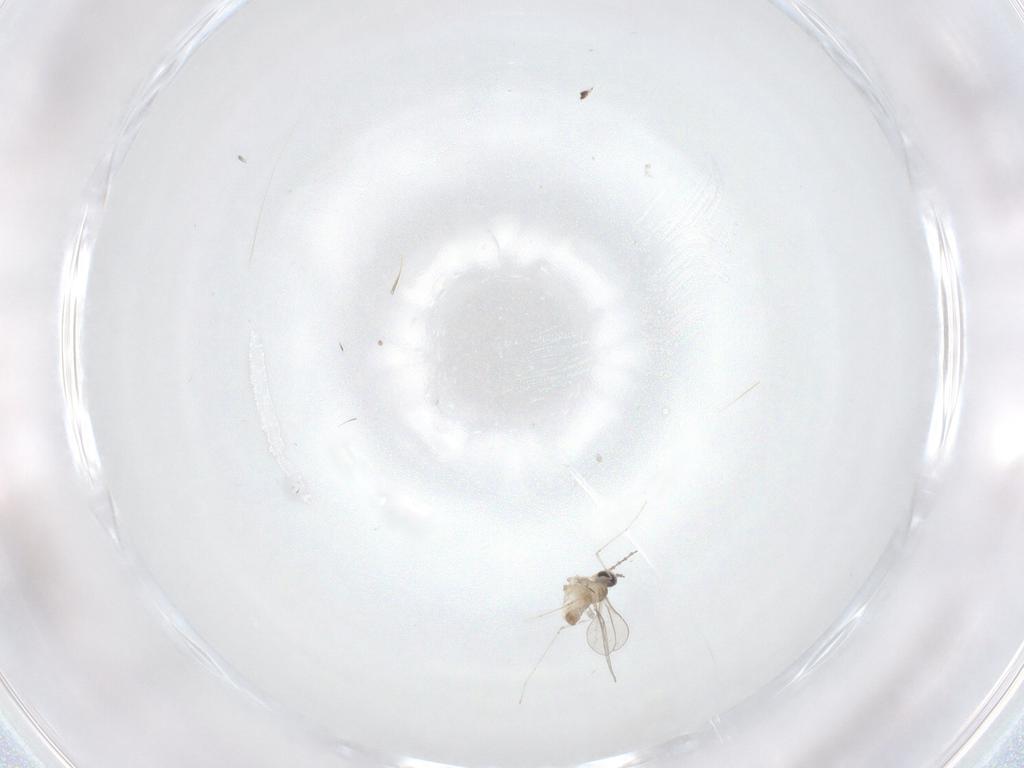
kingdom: Animalia
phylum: Arthropoda
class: Insecta
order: Diptera
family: Cecidomyiidae
